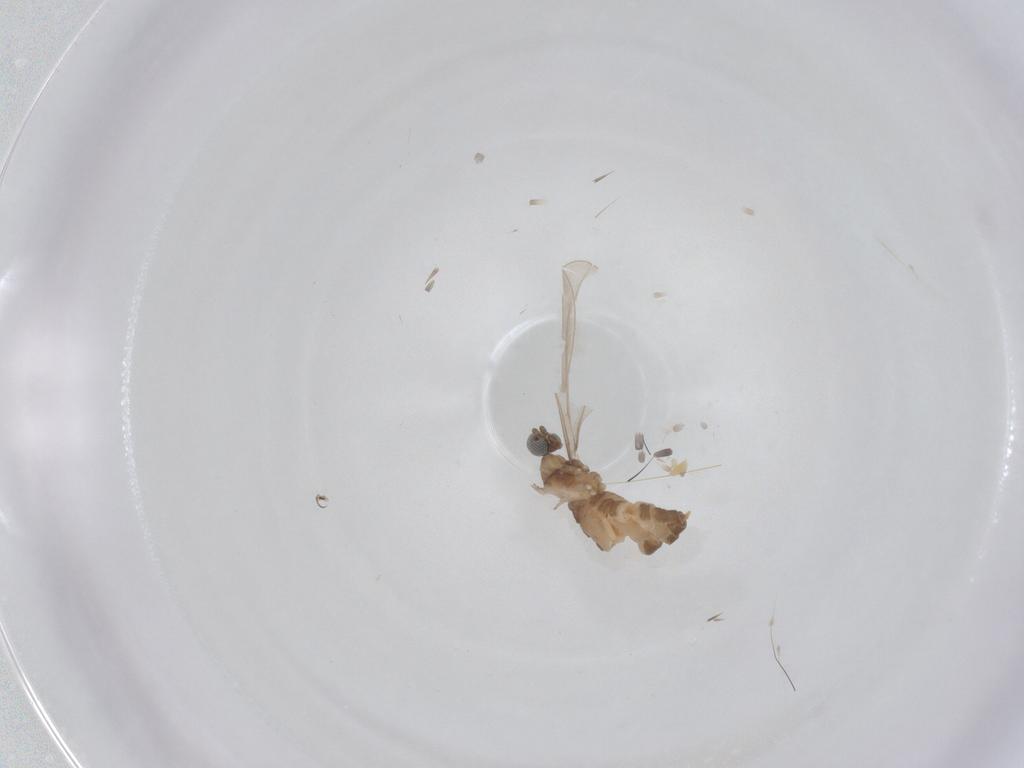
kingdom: Animalia
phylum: Arthropoda
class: Insecta
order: Diptera
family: Cecidomyiidae
